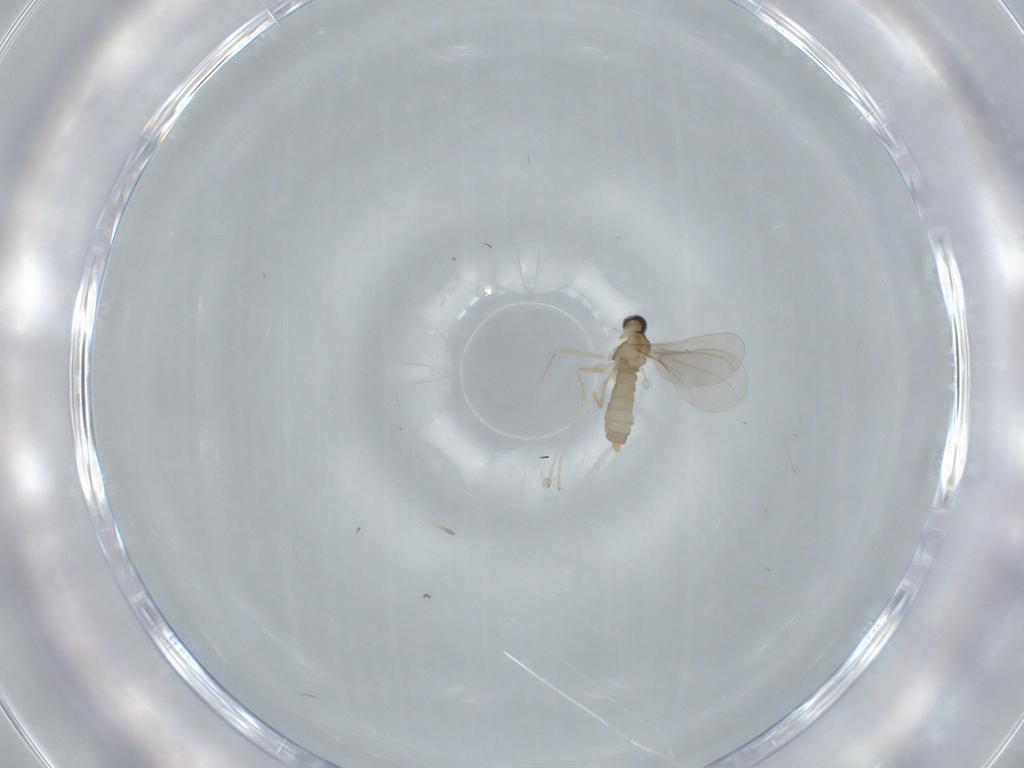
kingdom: Animalia
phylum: Arthropoda
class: Insecta
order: Diptera
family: Cecidomyiidae
